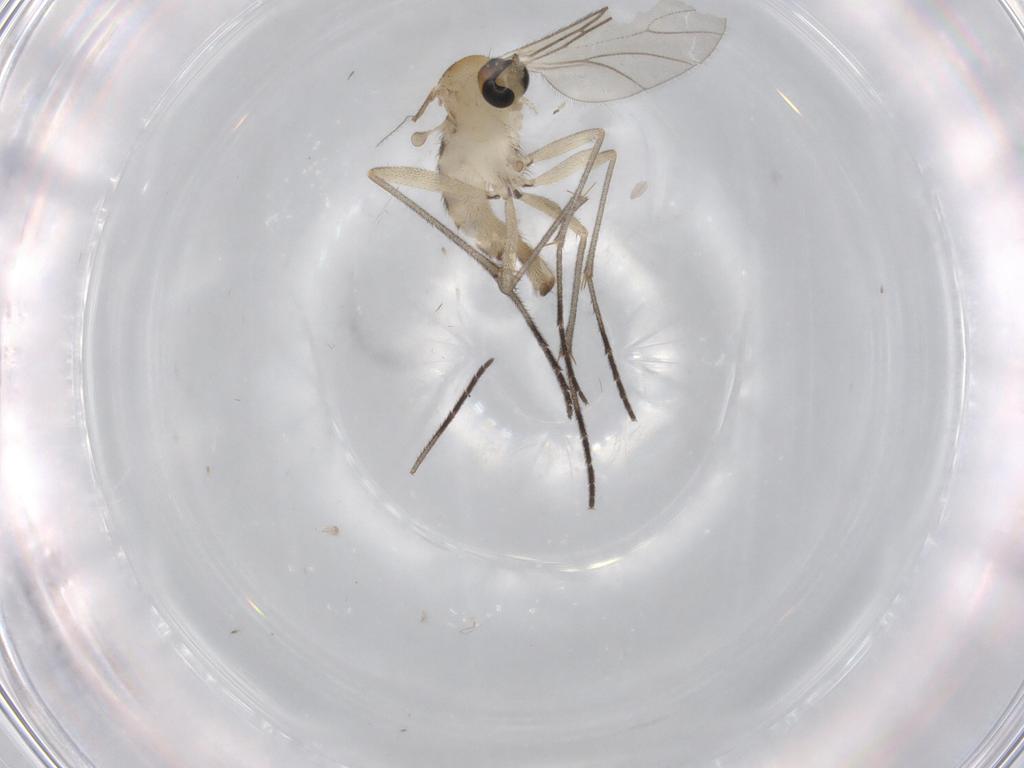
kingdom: Animalia
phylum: Arthropoda
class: Insecta
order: Diptera
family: Sciaridae
